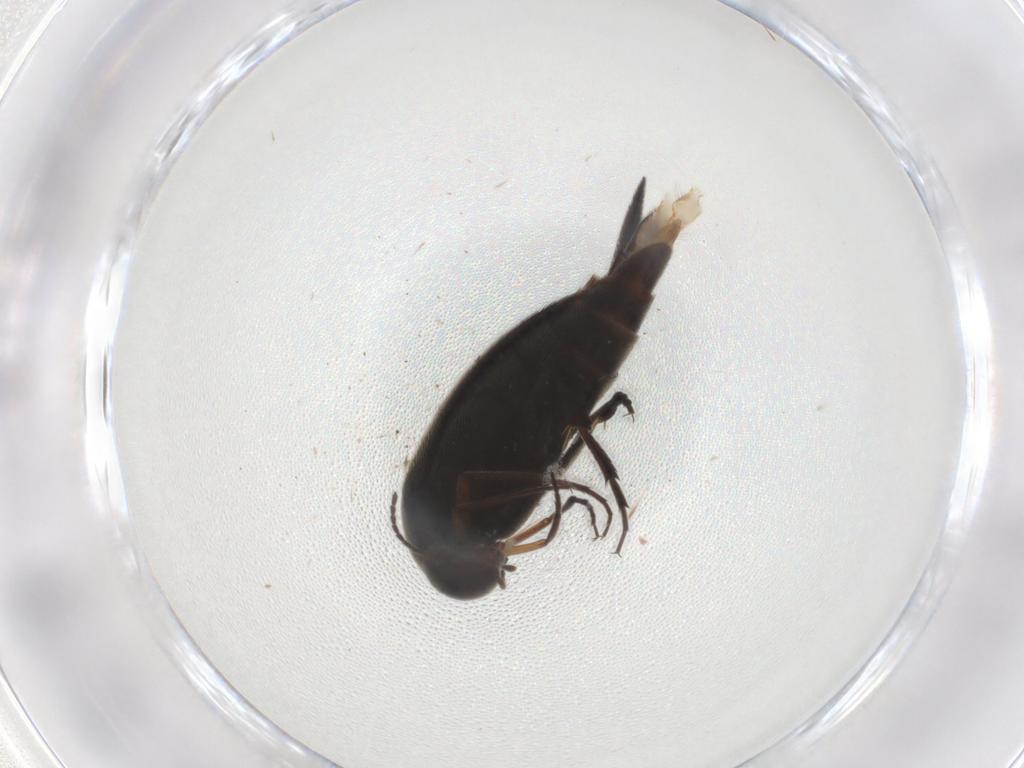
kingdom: Animalia
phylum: Arthropoda
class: Insecta
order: Coleoptera
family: Mordellidae
